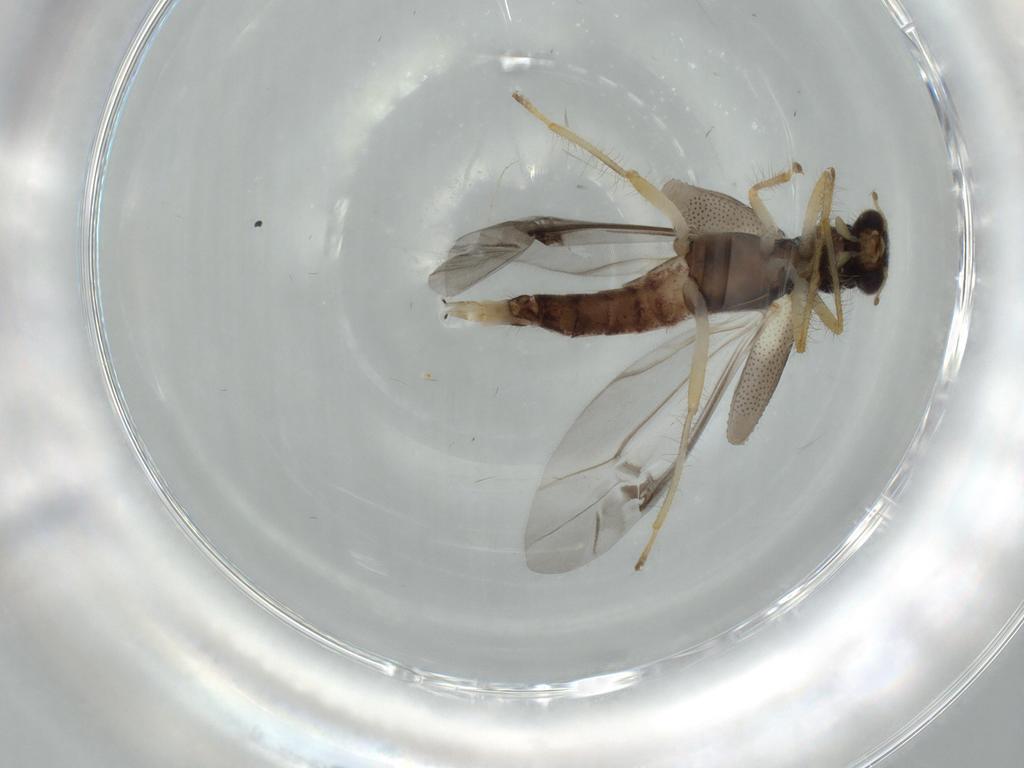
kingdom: Animalia
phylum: Arthropoda
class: Insecta
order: Coleoptera
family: Cleridae
